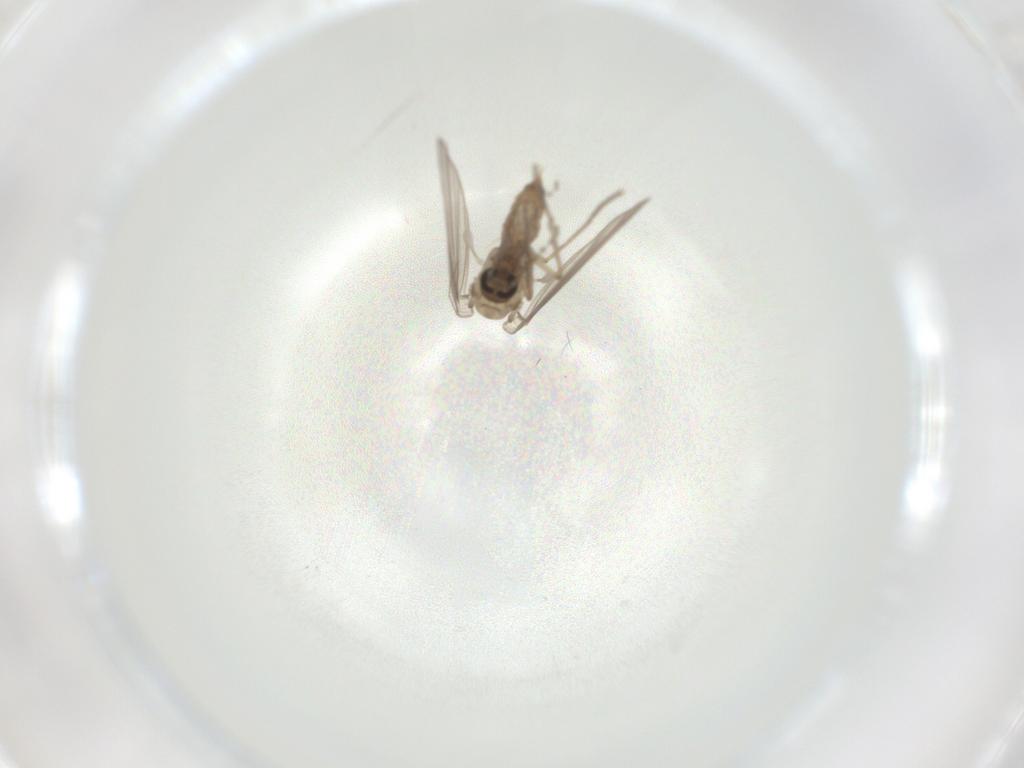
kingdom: Animalia
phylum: Arthropoda
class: Insecta
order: Diptera
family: Psychodidae
